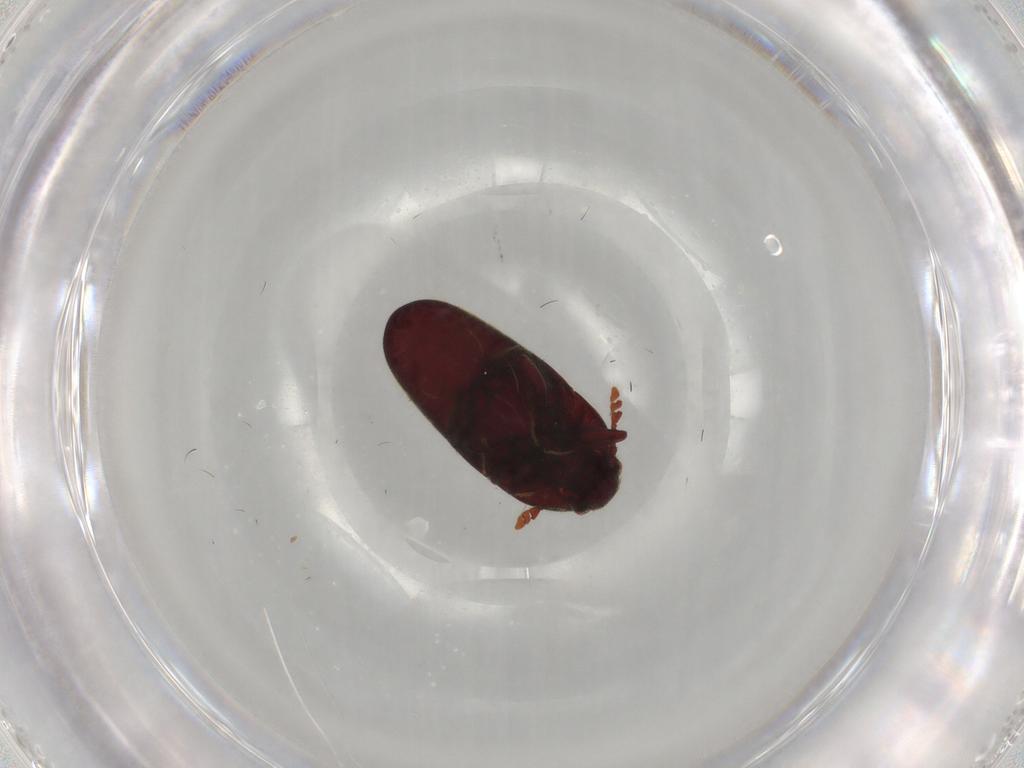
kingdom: Animalia
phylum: Arthropoda
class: Insecta
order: Coleoptera
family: Throscidae
